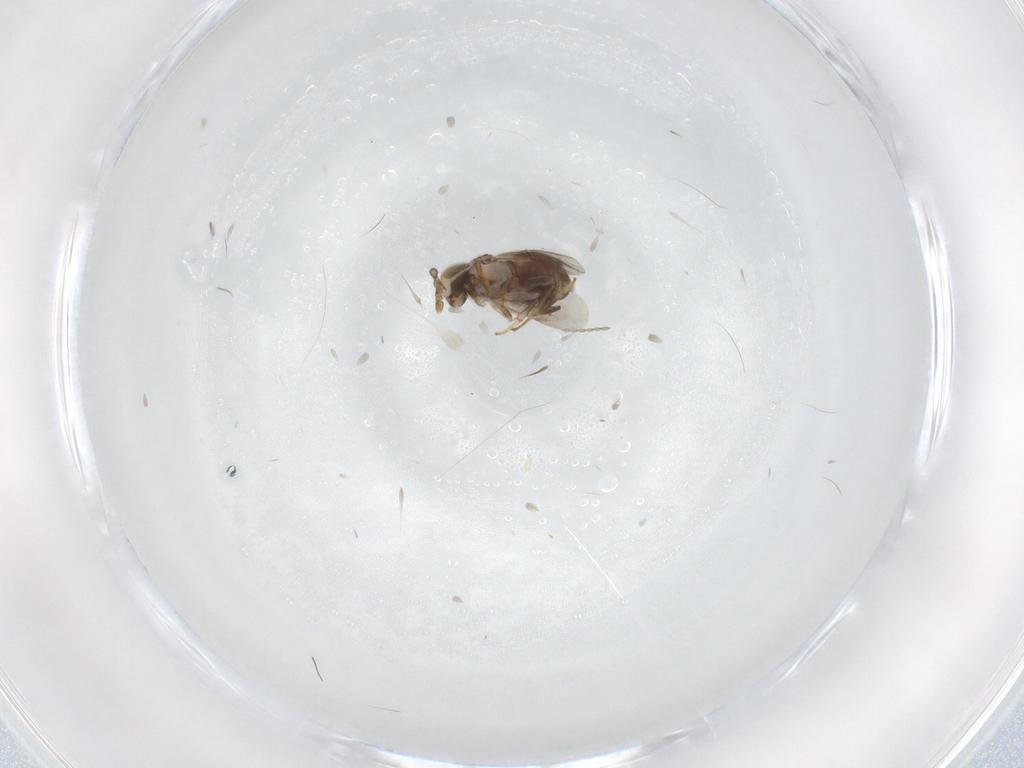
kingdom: Animalia
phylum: Arthropoda
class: Insecta
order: Hymenoptera
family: Encyrtidae
